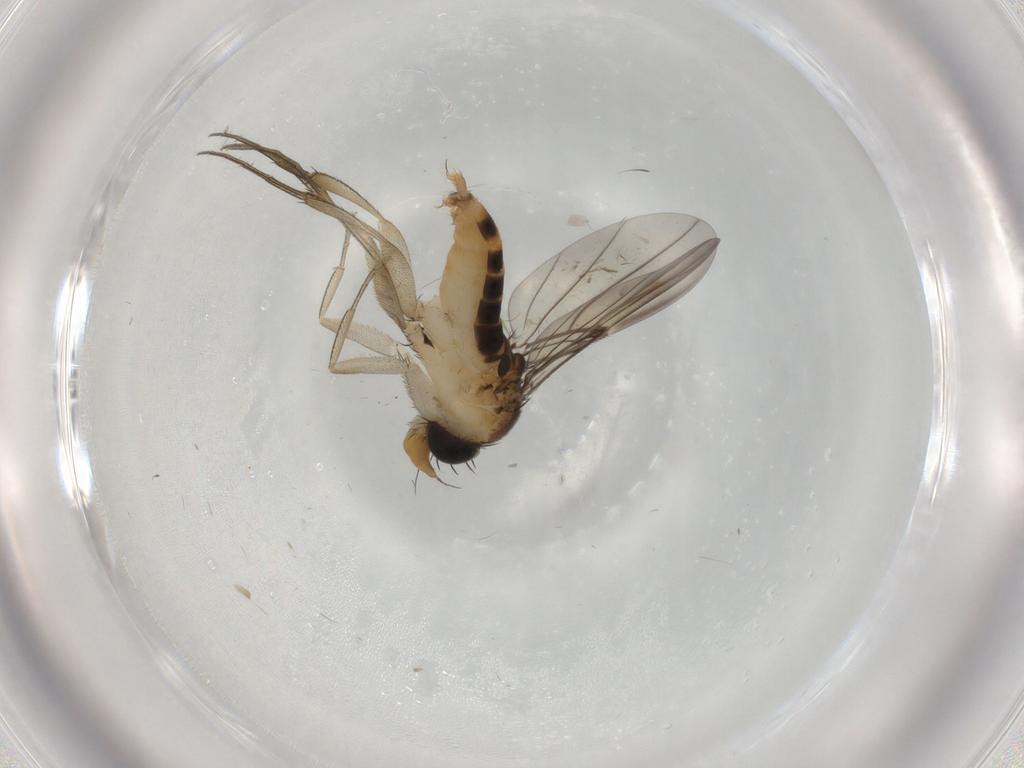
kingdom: Animalia
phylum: Arthropoda
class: Insecta
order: Diptera
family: Phoridae
